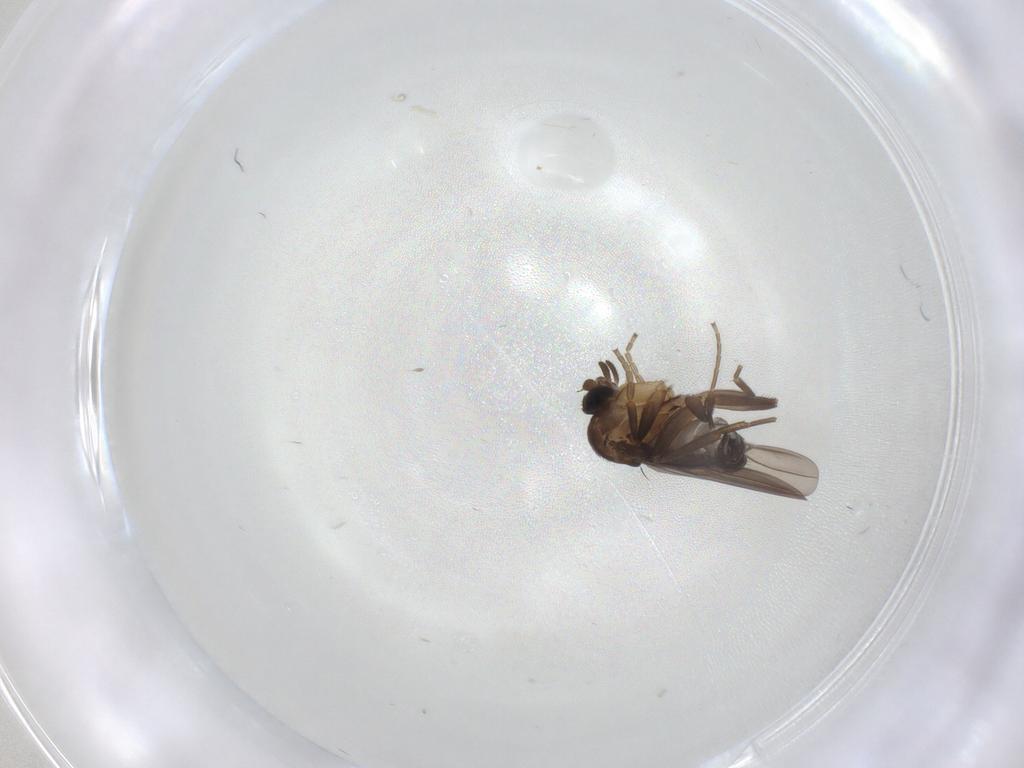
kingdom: Animalia
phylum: Arthropoda
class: Insecta
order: Diptera
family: Phoridae
